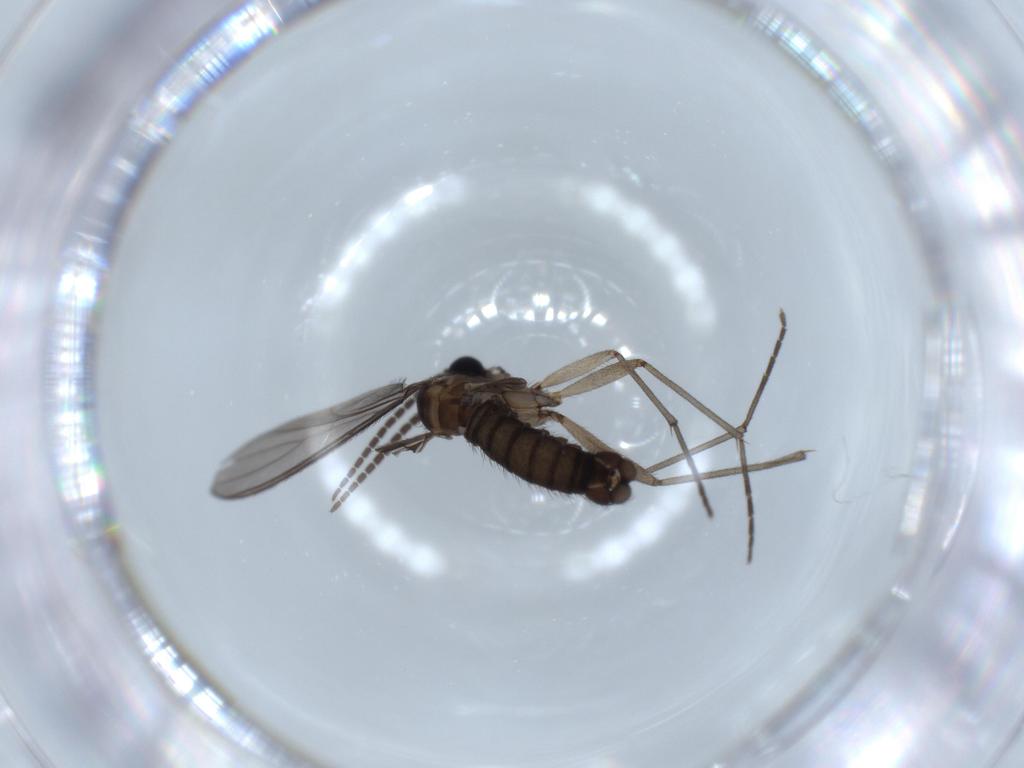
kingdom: Animalia
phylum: Arthropoda
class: Insecta
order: Diptera
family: Sciaridae
